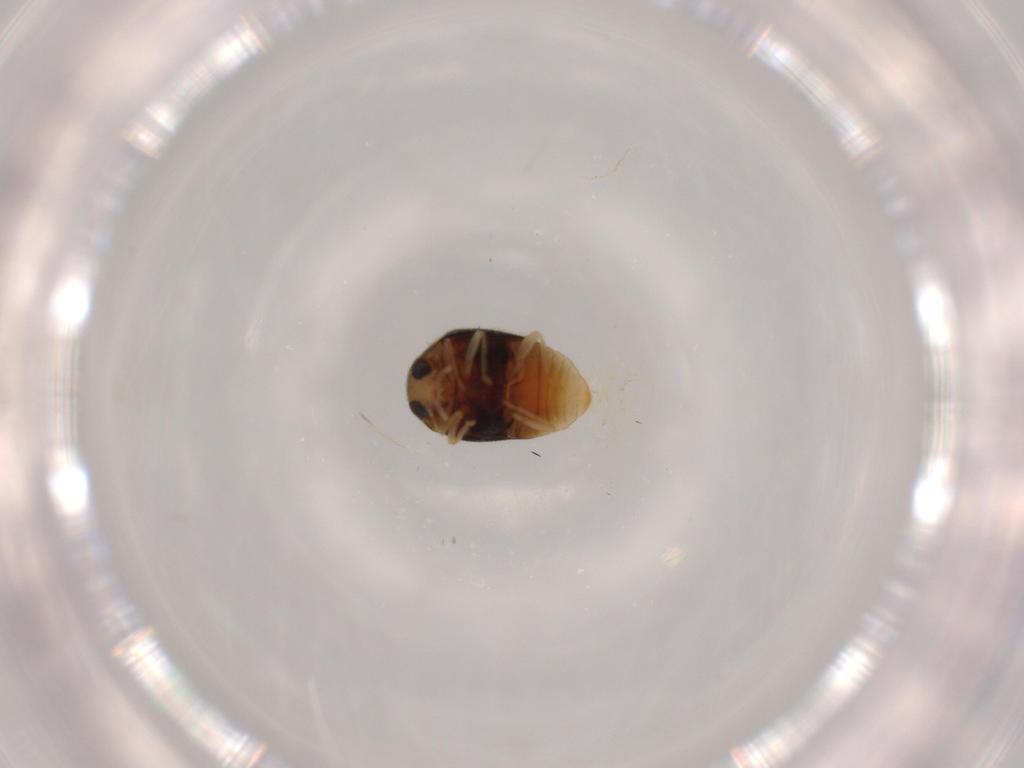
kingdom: Animalia
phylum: Arthropoda
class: Insecta
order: Coleoptera
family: Coccinellidae
